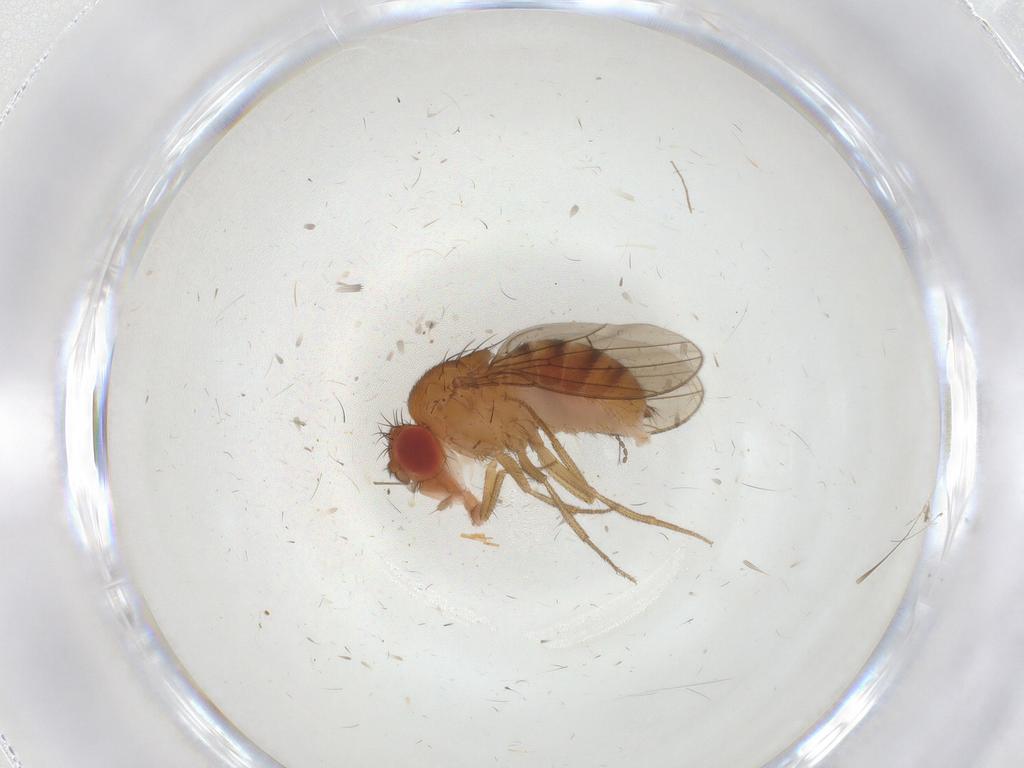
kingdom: Animalia
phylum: Arthropoda
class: Insecta
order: Diptera
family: Drosophilidae
